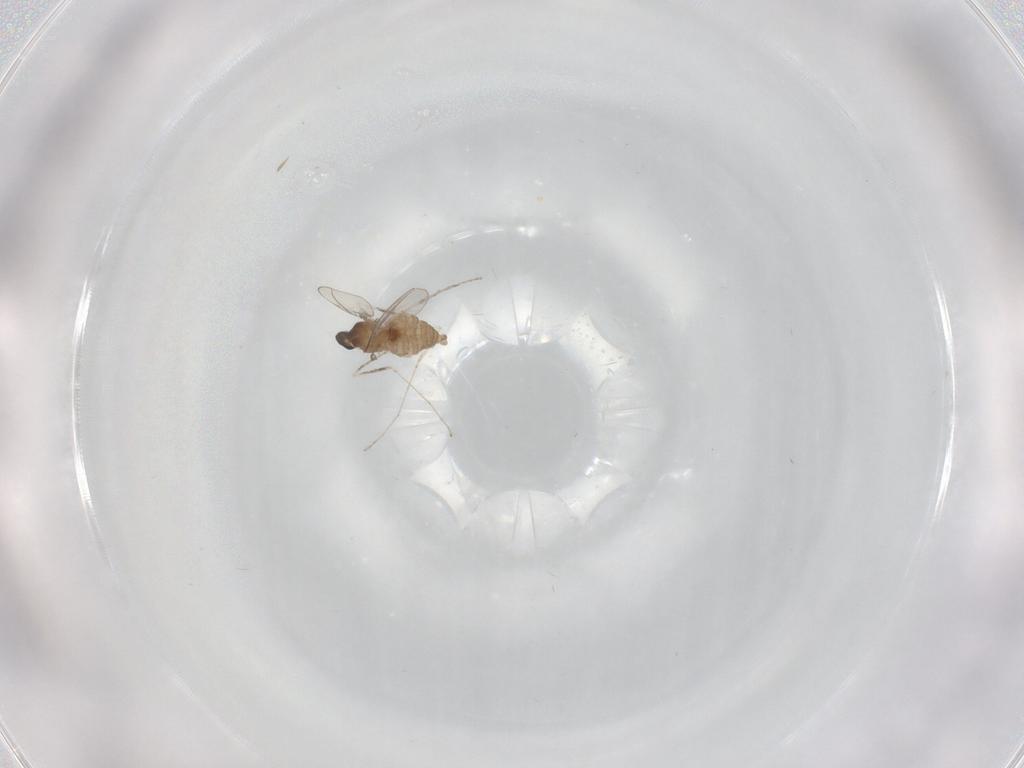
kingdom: Animalia
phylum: Arthropoda
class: Insecta
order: Diptera
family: Cecidomyiidae
